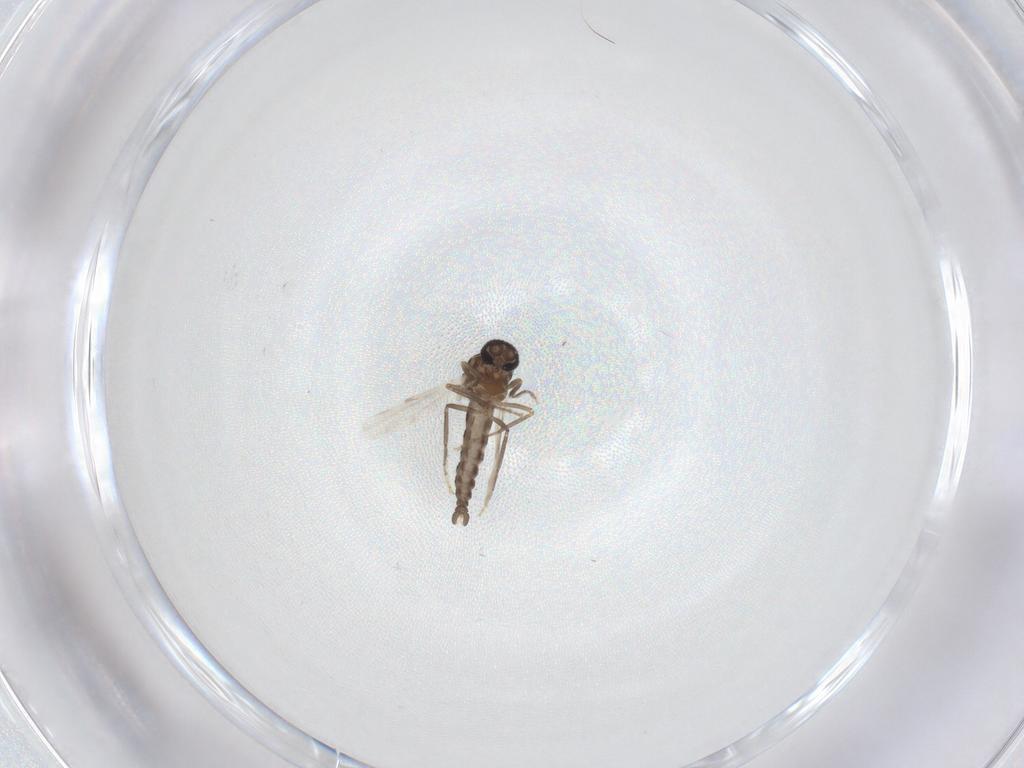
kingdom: Animalia
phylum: Arthropoda
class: Insecta
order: Diptera
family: Ceratopogonidae
